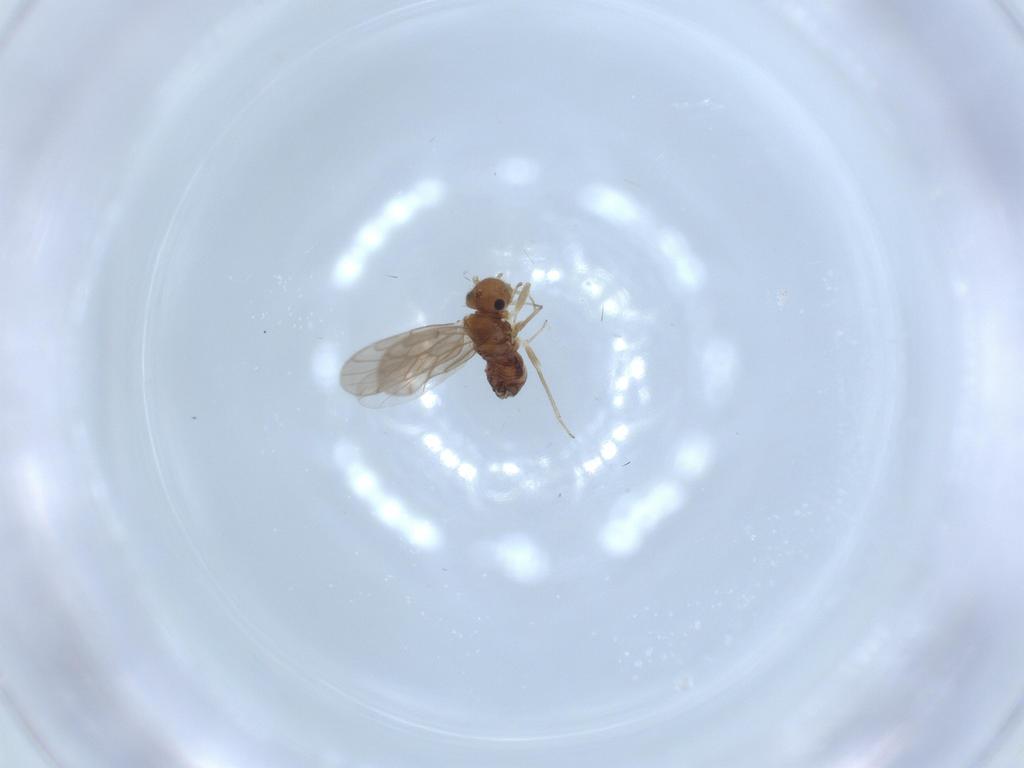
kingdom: Animalia
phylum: Arthropoda
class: Insecta
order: Psocodea
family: Ectopsocidae
